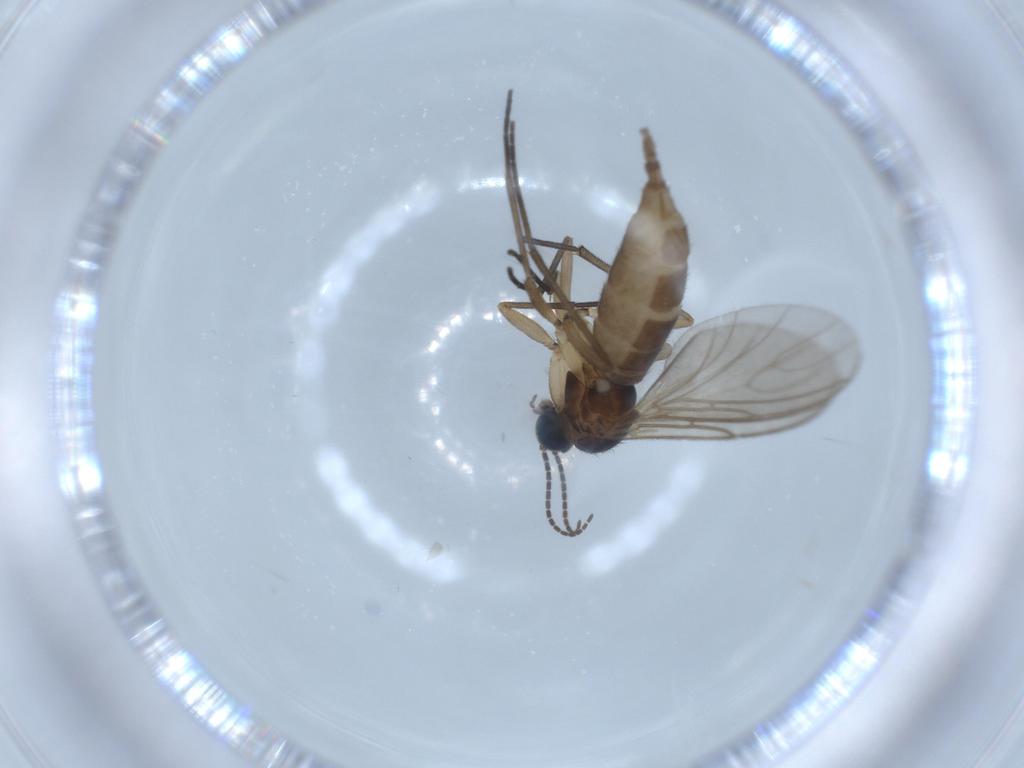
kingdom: Animalia
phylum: Arthropoda
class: Insecta
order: Diptera
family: Sciaridae
